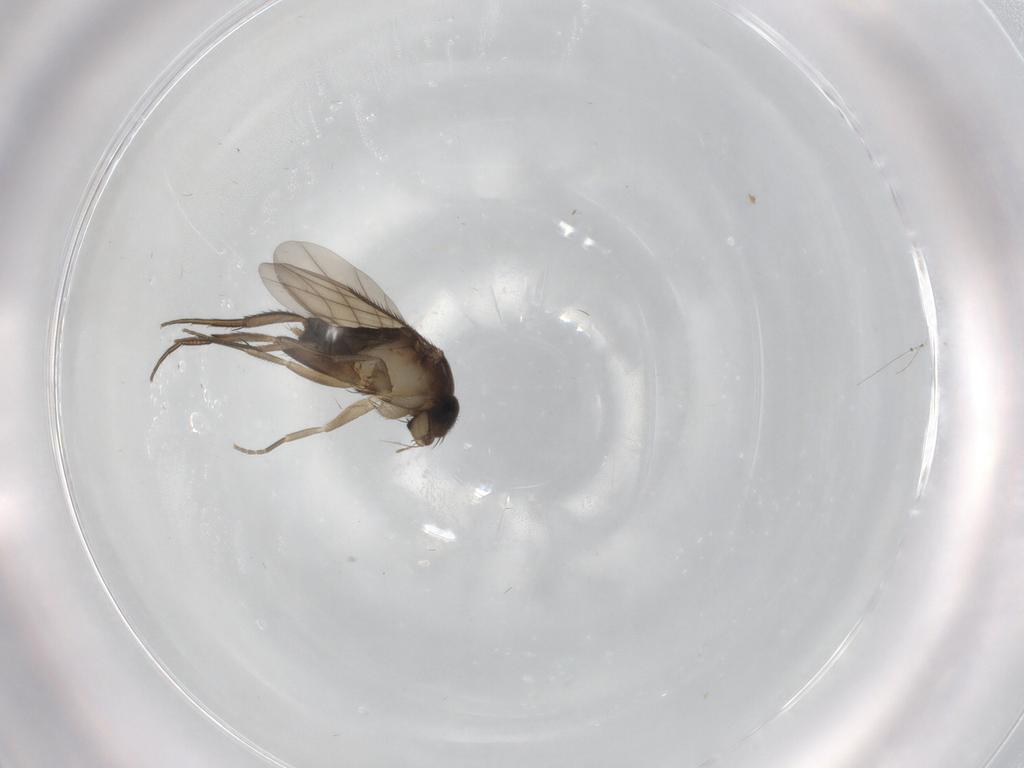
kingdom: Animalia
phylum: Arthropoda
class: Insecta
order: Diptera
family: Phoridae
